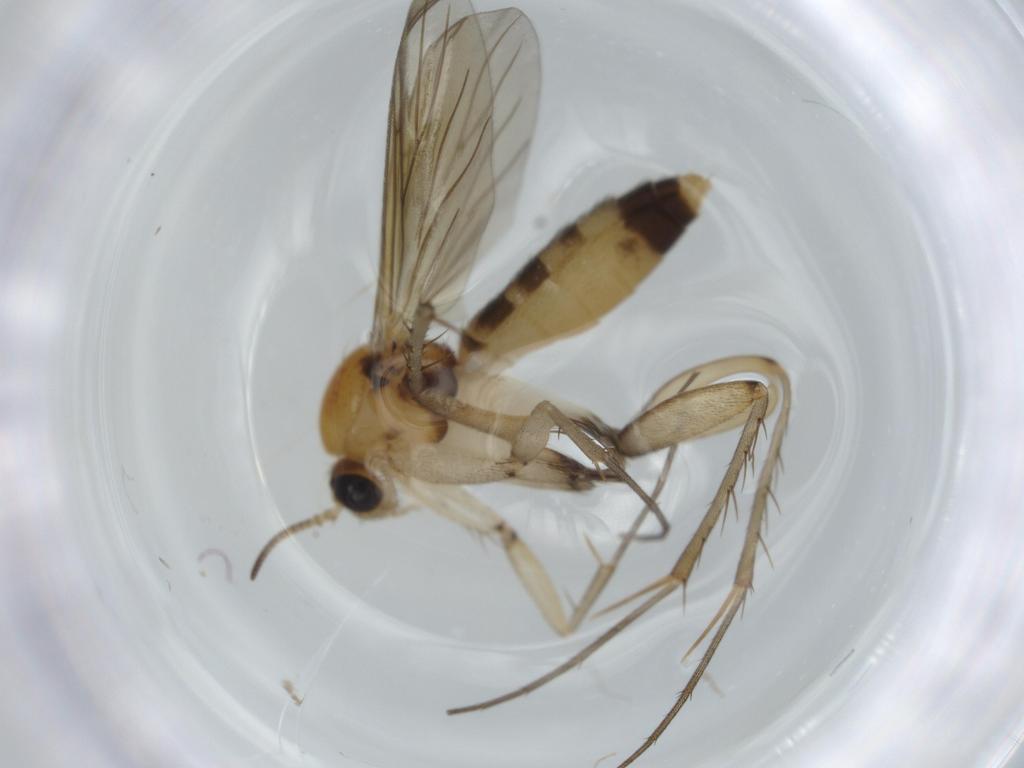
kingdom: Animalia
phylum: Arthropoda
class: Insecta
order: Diptera
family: Mycetophilidae
